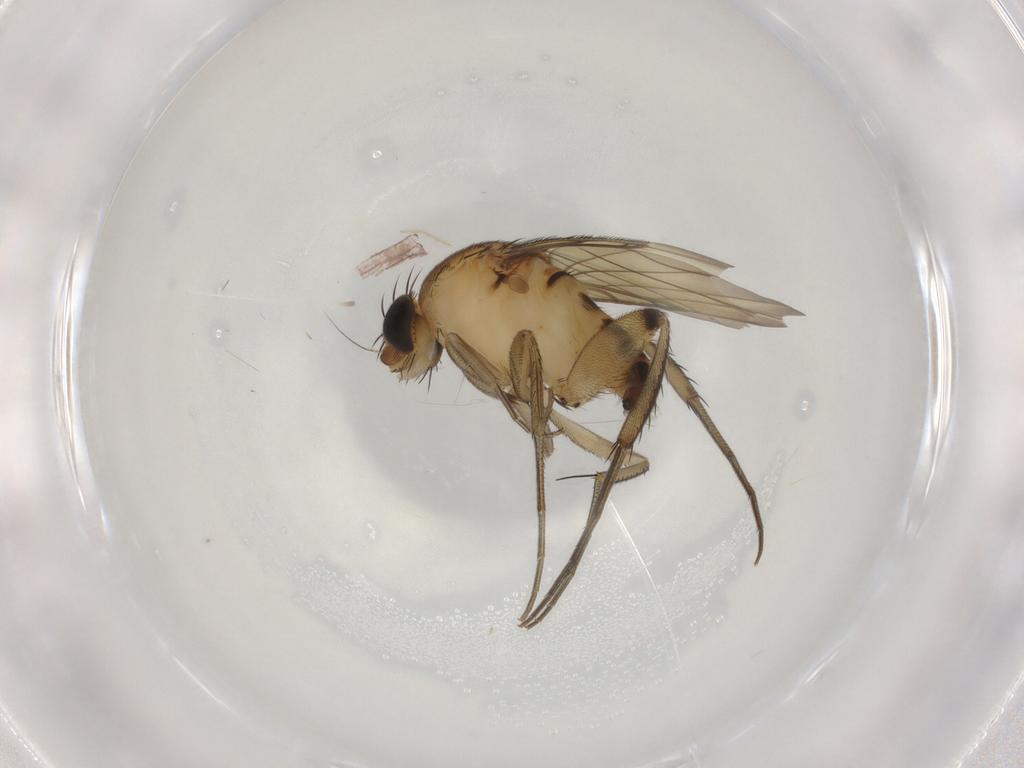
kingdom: Animalia
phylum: Arthropoda
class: Insecta
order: Diptera
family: Phoridae
